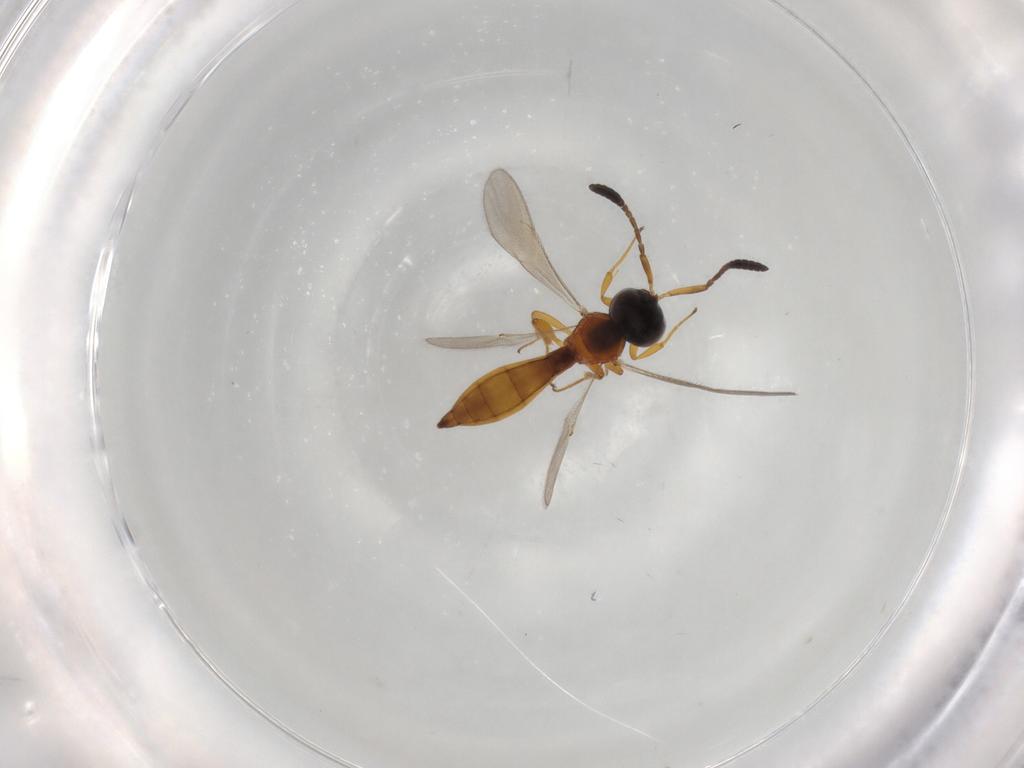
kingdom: Animalia
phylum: Arthropoda
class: Insecta
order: Hymenoptera
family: Scelionidae
